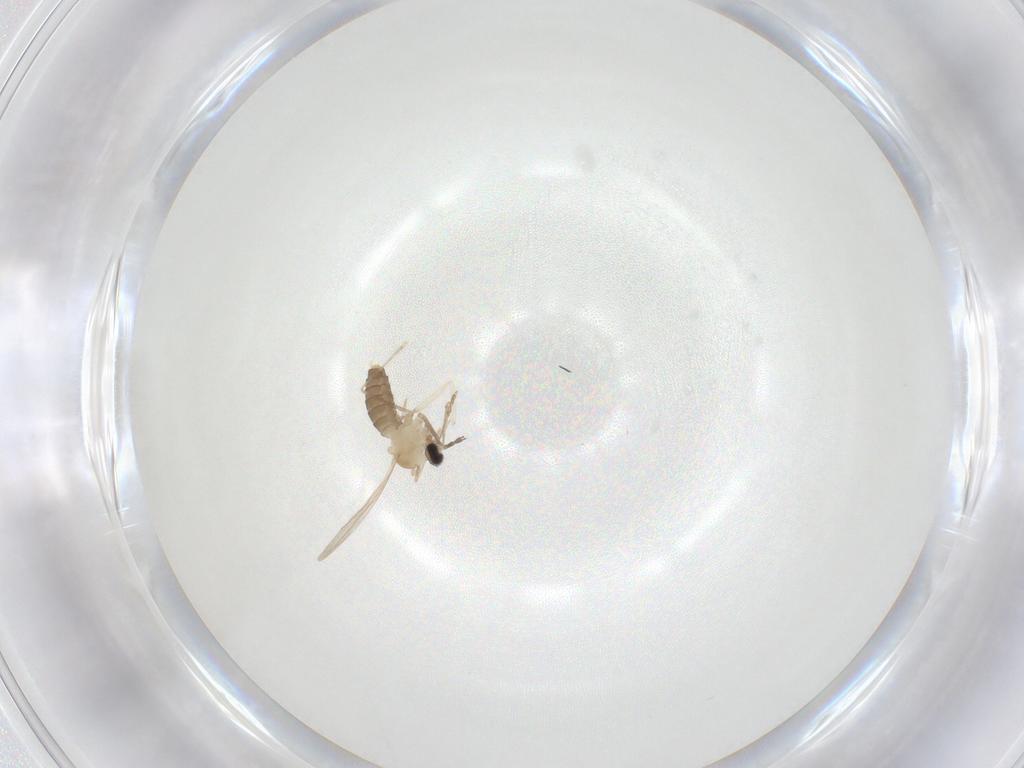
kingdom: Animalia
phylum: Arthropoda
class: Insecta
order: Diptera
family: Cecidomyiidae
